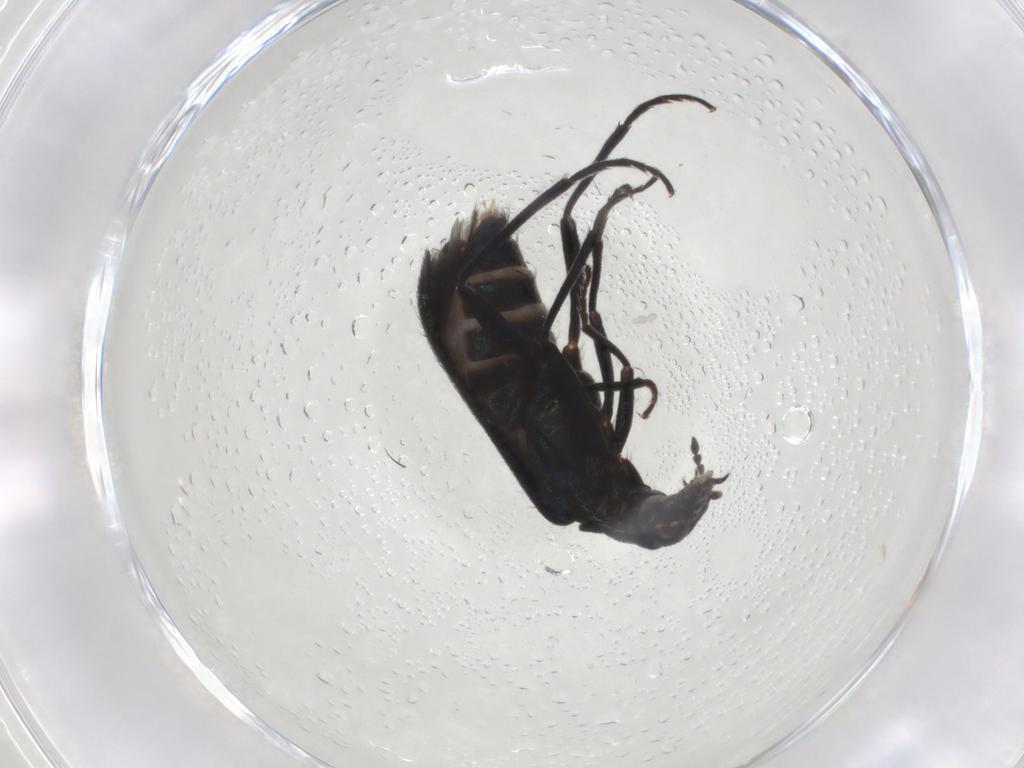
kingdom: Animalia
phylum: Arthropoda
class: Insecta
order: Coleoptera
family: Melyridae
